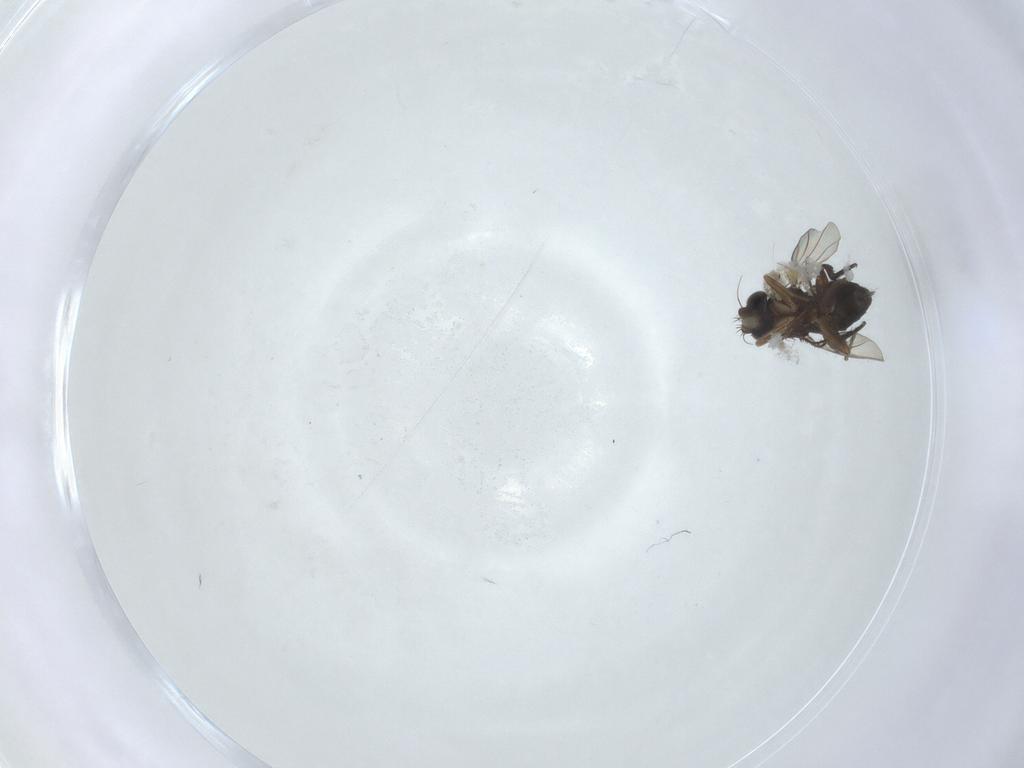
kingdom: Animalia
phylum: Arthropoda
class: Insecta
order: Diptera
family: Phoridae
